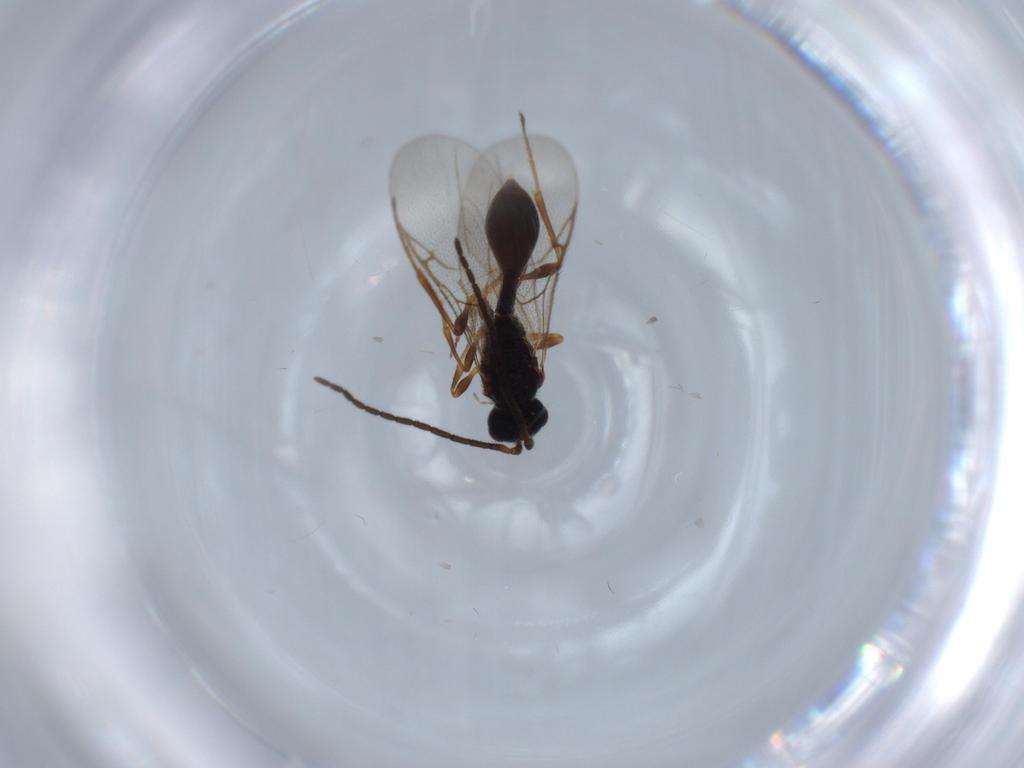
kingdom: Animalia
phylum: Arthropoda
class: Insecta
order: Hymenoptera
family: Diapriidae
